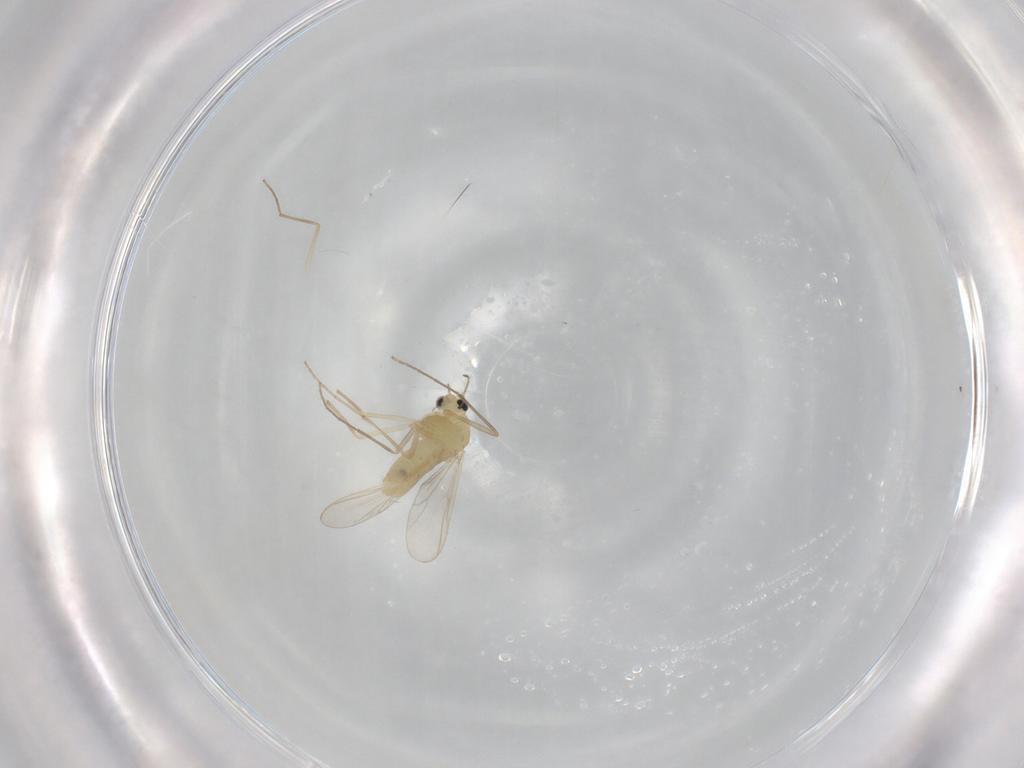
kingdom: Animalia
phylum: Arthropoda
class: Insecta
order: Diptera
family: Chironomidae
